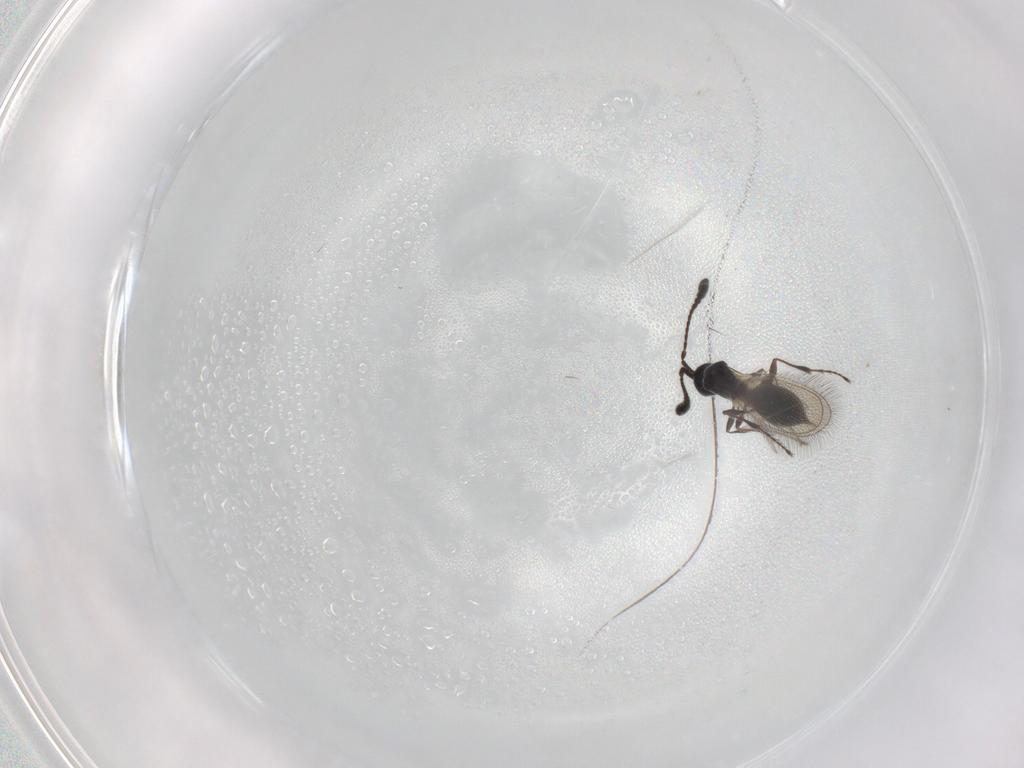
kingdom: Animalia
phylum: Arthropoda
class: Insecta
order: Hymenoptera
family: Diapriidae
